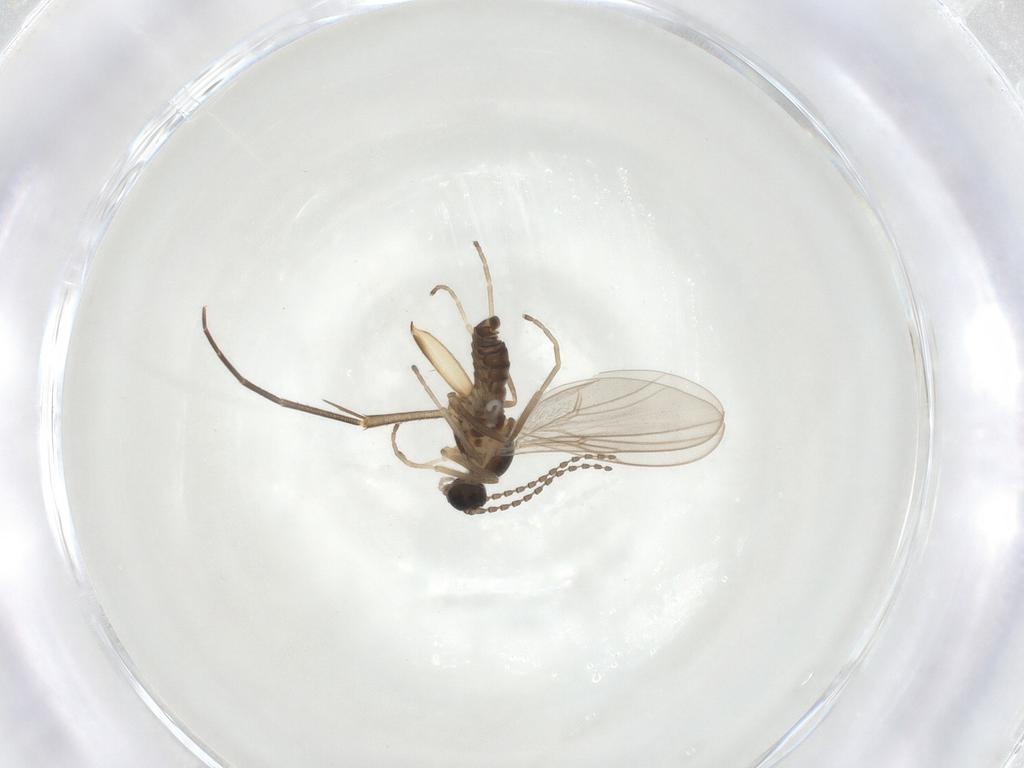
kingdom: Animalia
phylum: Arthropoda
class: Insecta
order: Diptera
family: Cecidomyiidae
